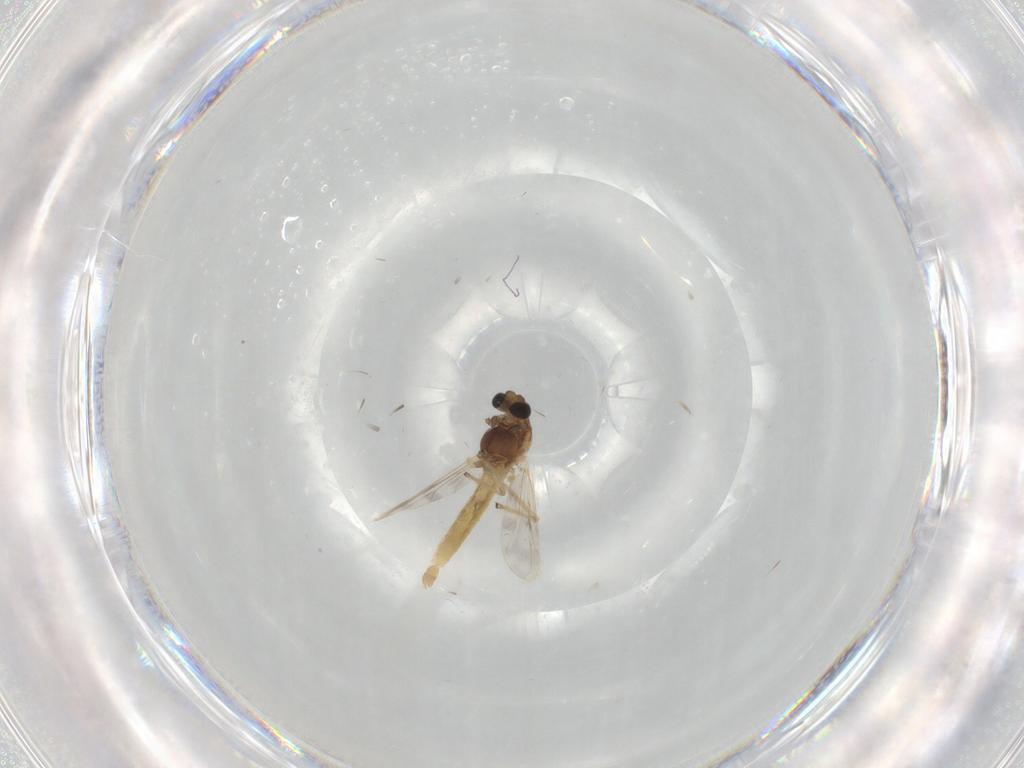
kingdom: Animalia
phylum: Arthropoda
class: Insecta
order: Diptera
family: Chironomidae
